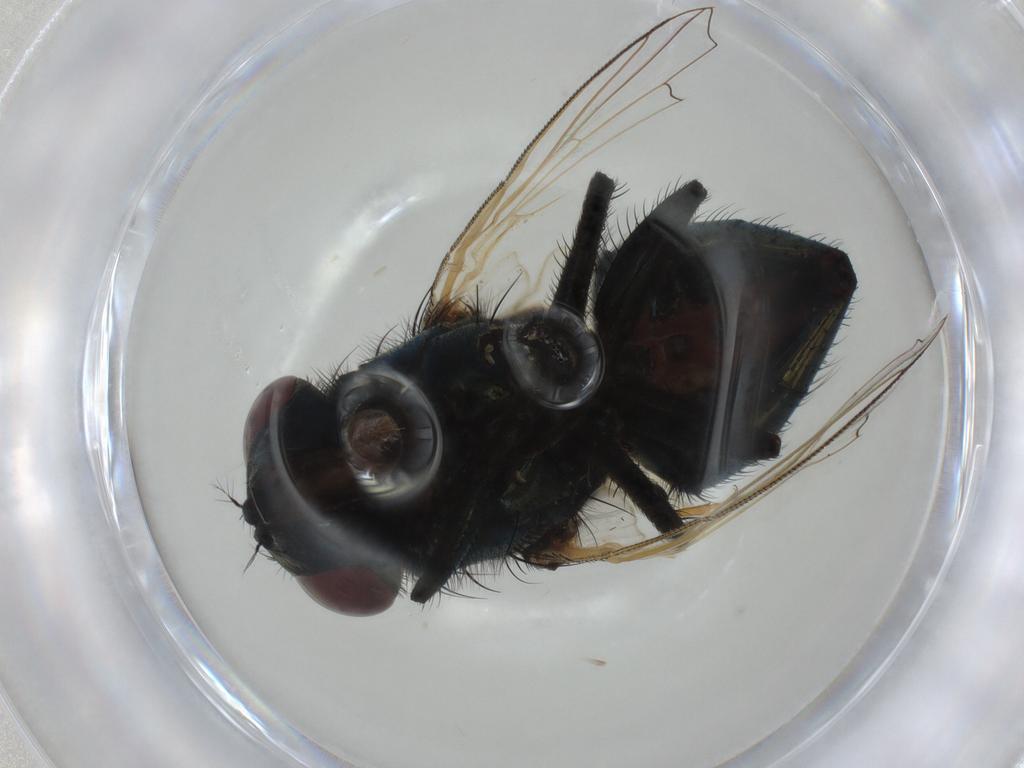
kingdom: Animalia
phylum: Arthropoda
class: Insecta
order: Diptera
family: Muscidae
